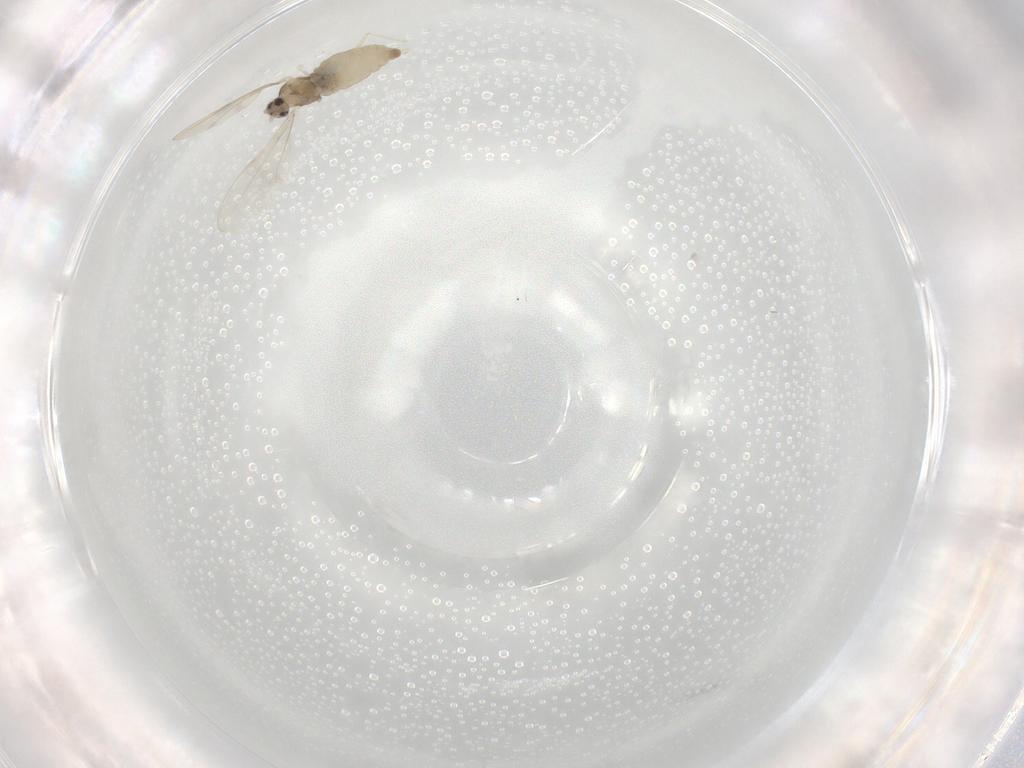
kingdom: Animalia
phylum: Arthropoda
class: Insecta
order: Diptera
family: Cecidomyiidae
